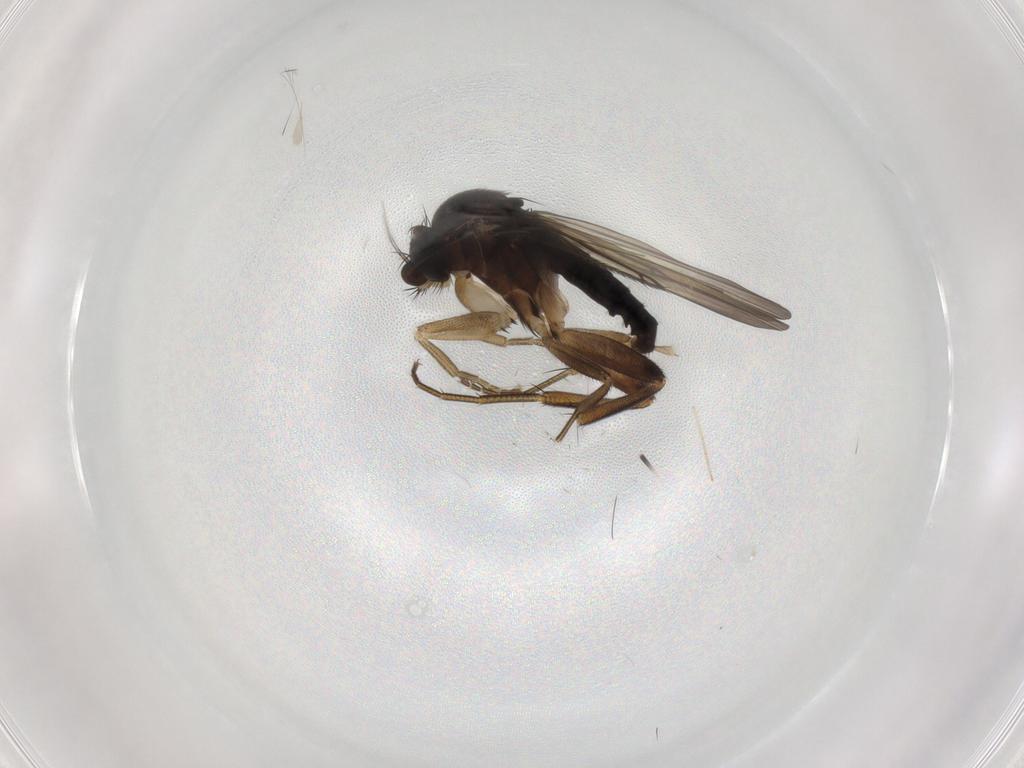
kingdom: Animalia
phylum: Arthropoda
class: Insecta
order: Diptera
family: Phoridae
